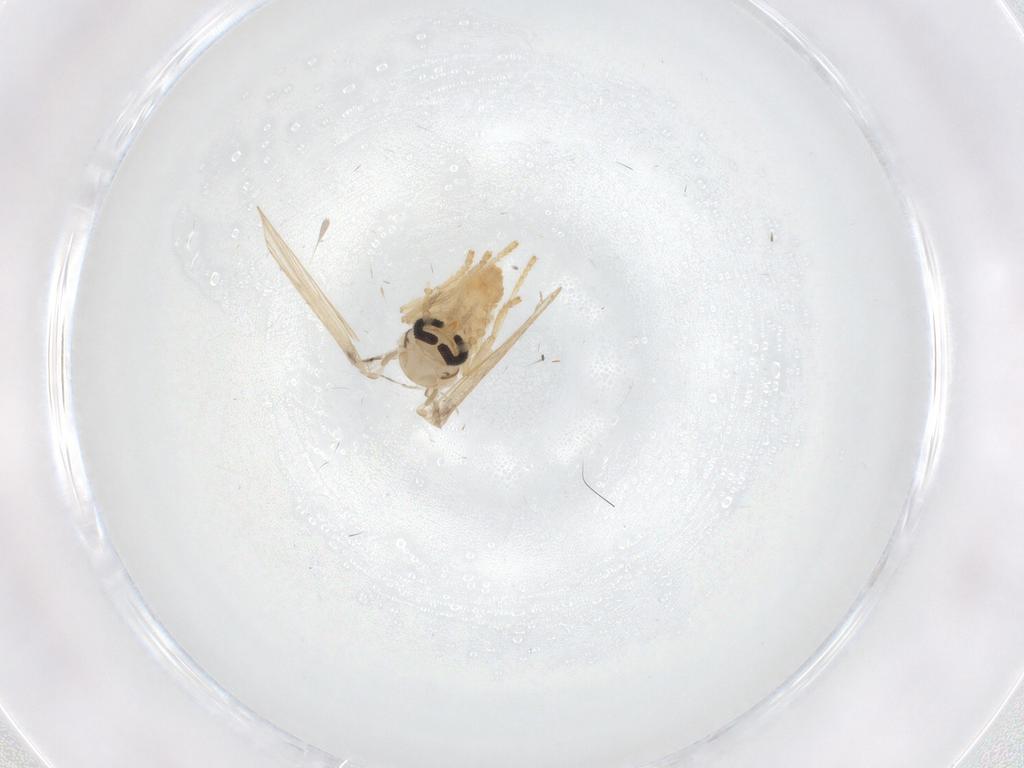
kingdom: Animalia
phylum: Arthropoda
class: Insecta
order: Diptera
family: Psychodidae
